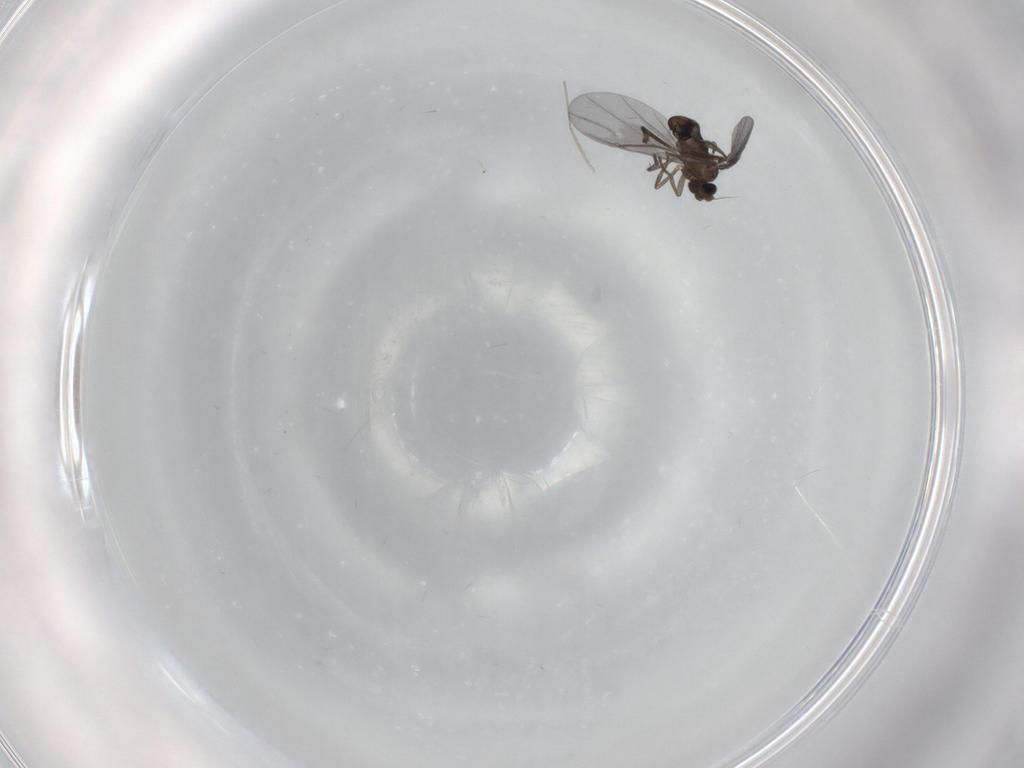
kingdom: Animalia
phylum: Arthropoda
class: Insecta
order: Diptera
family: Phoridae
